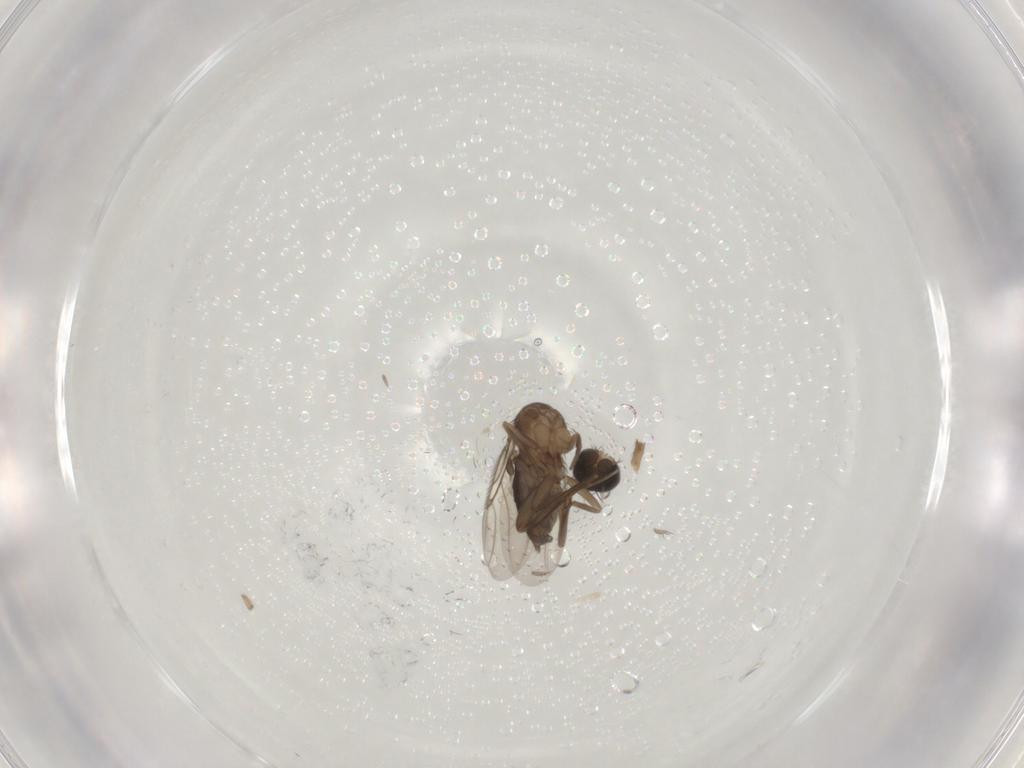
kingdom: Animalia
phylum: Arthropoda
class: Insecta
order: Diptera
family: Phoridae
